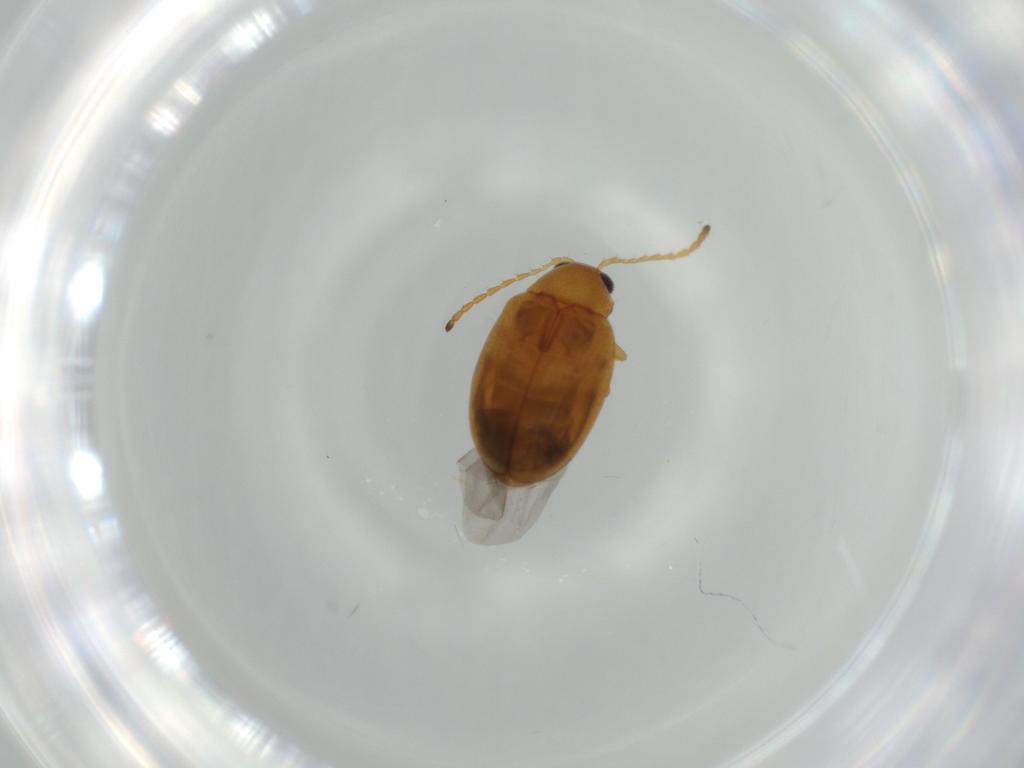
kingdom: Animalia
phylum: Arthropoda
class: Insecta
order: Coleoptera
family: Chrysomelidae
